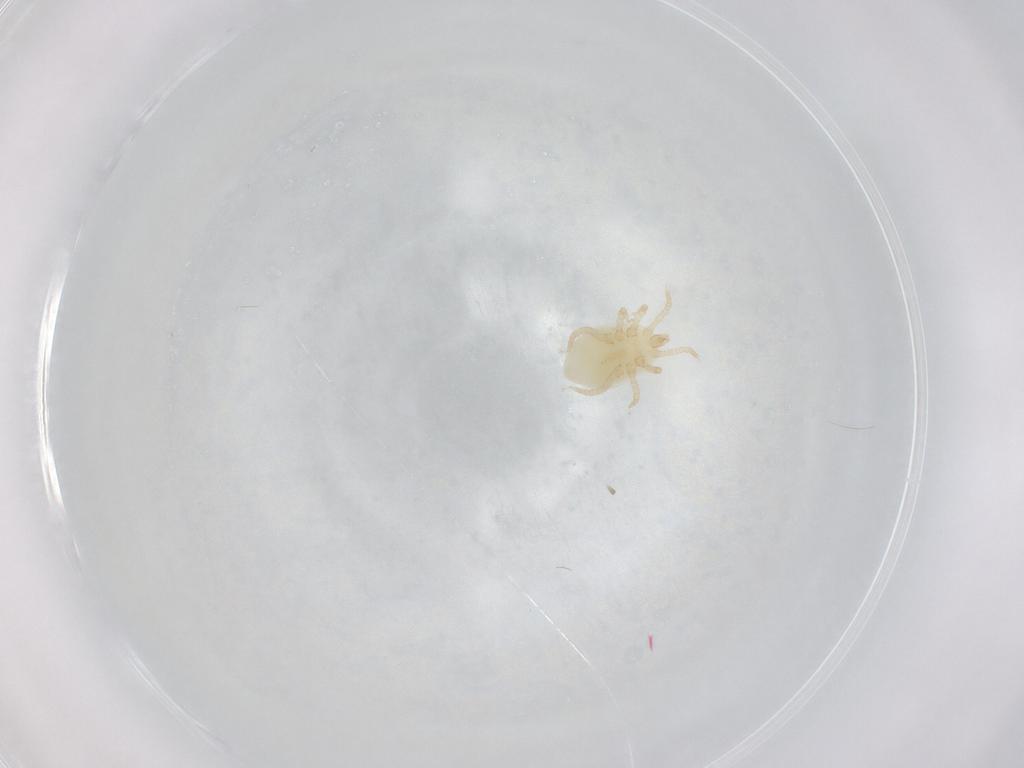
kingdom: Animalia
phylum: Arthropoda
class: Arachnida
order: Mesostigmata
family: Melicharidae
